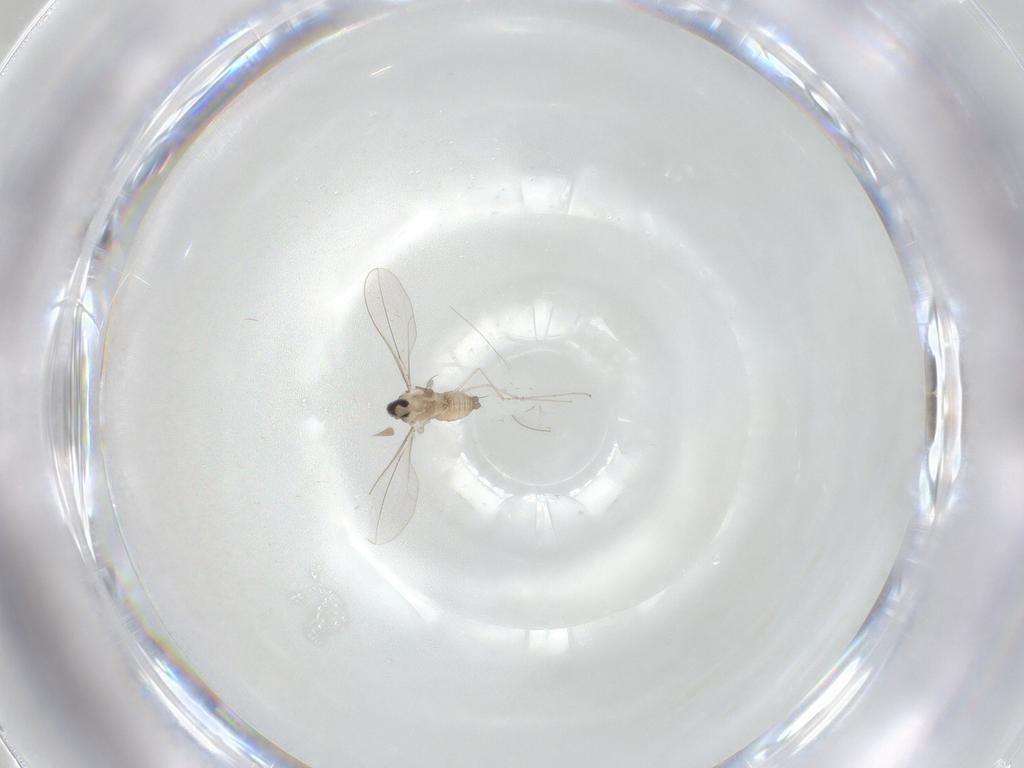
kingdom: Animalia
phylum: Arthropoda
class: Insecta
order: Diptera
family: Cecidomyiidae
